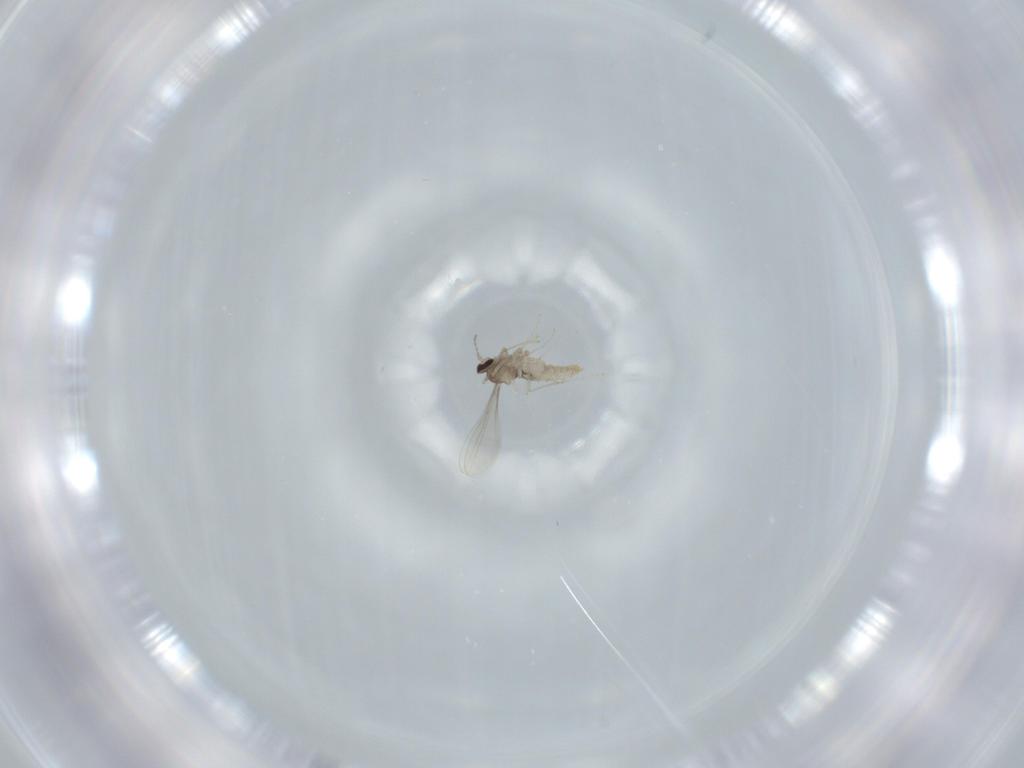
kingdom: Animalia
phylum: Arthropoda
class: Insecta
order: Diptera
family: Cecidomyiidae
